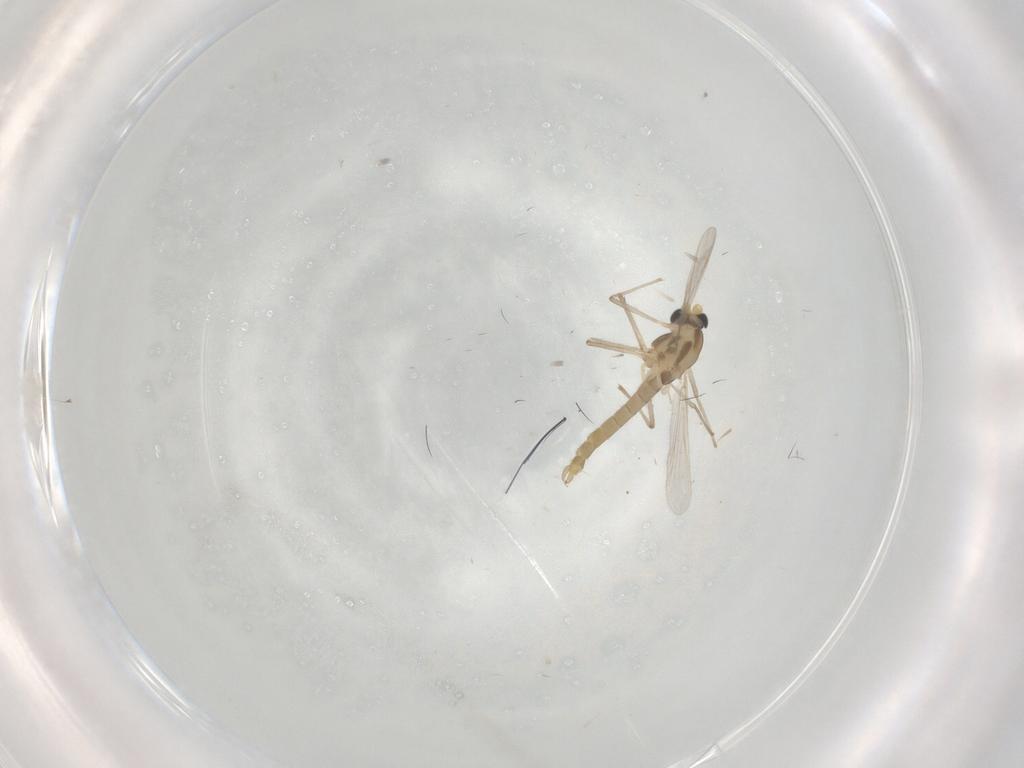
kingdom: Animalia
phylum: Arthropoda
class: Insecta
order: Diptera
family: Cecidomyiidae
